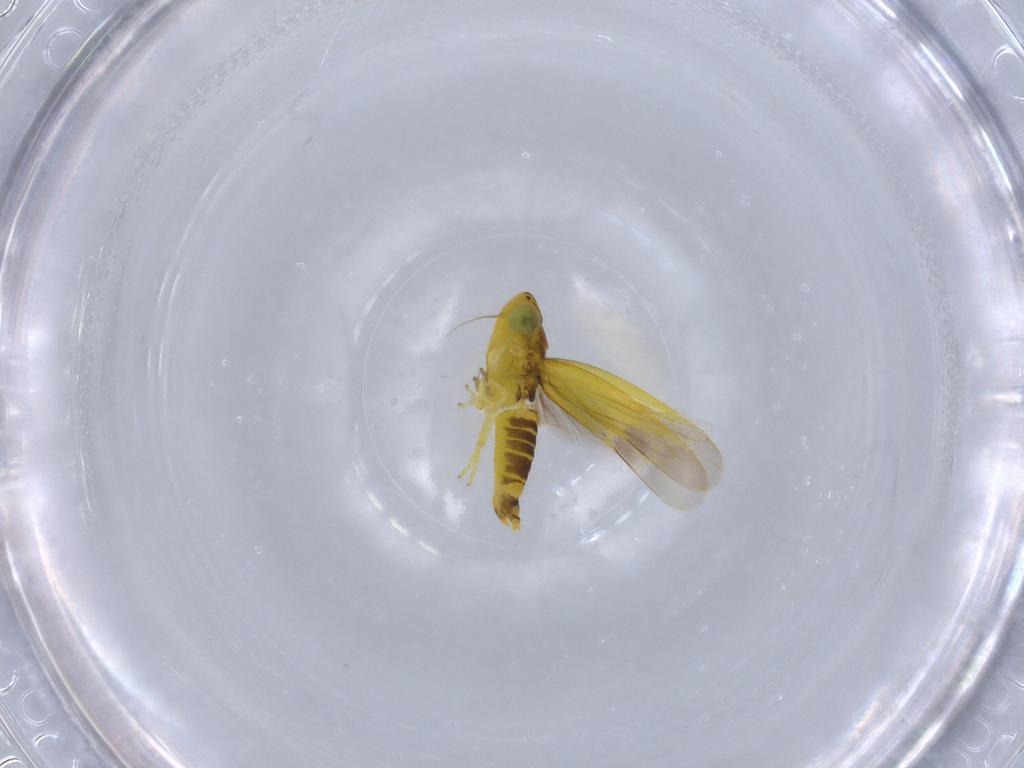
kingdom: Animalia
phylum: Arthropoda
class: Insecta
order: Hemiptera
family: Cicadellidae
